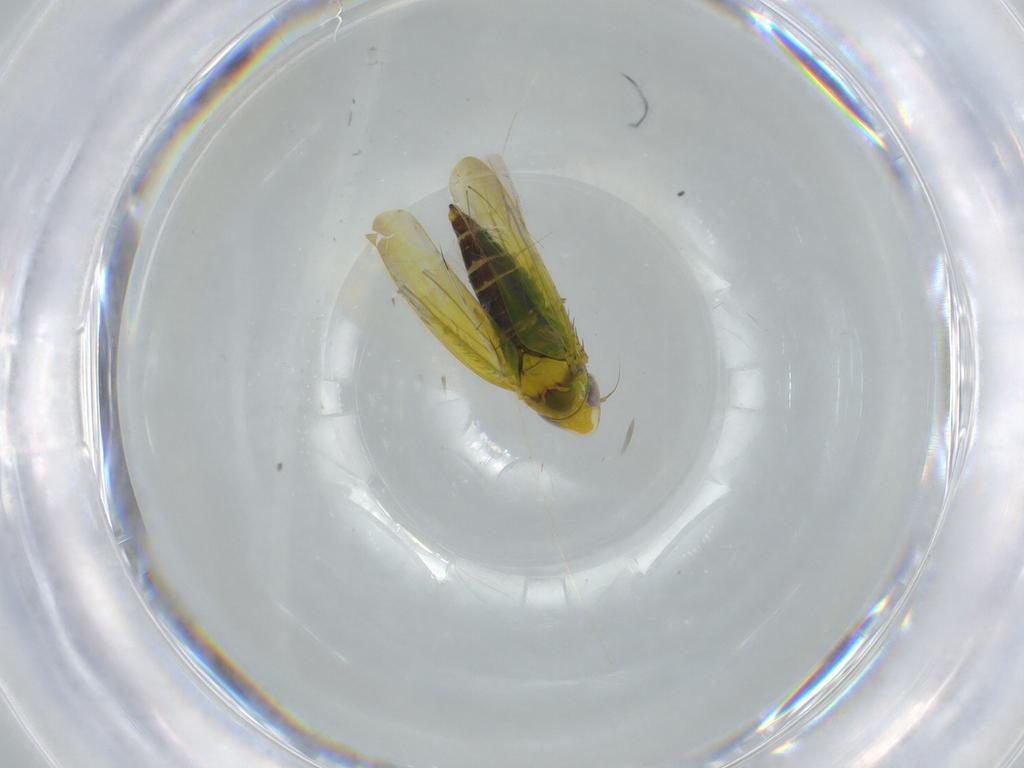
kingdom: Animalia
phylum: Arthropoda
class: Insecta
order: Hemiptera
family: Cicadellidae
